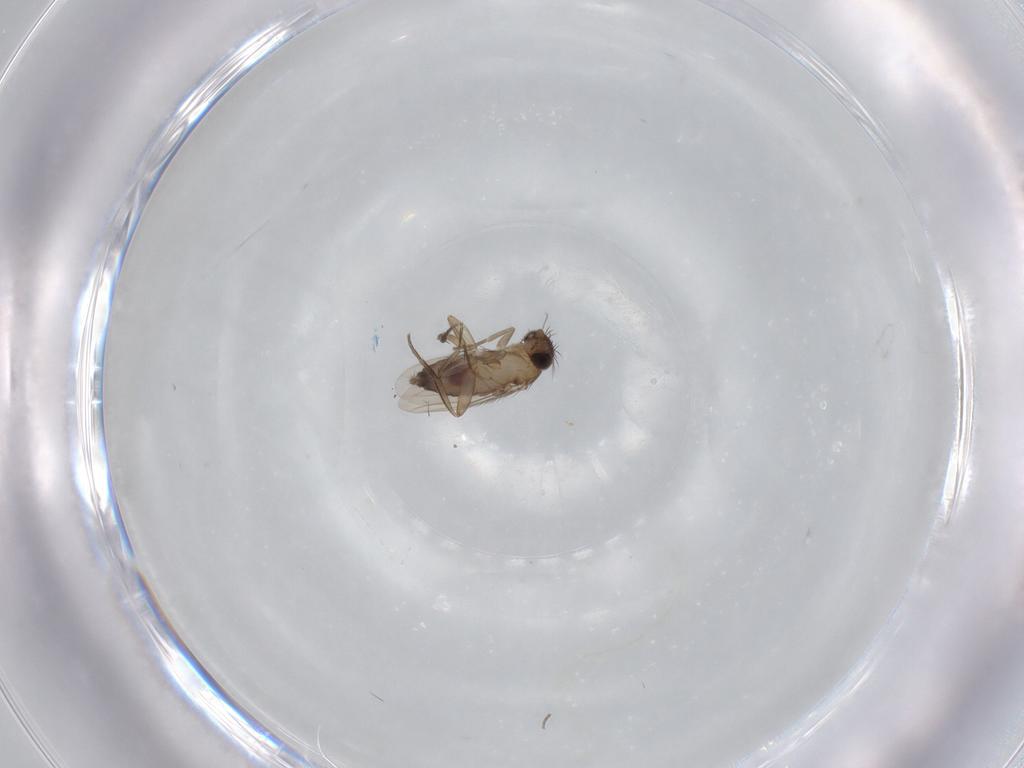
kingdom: Animalia
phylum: Arthropoda
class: Insecta
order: Diptera
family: Phoridae
